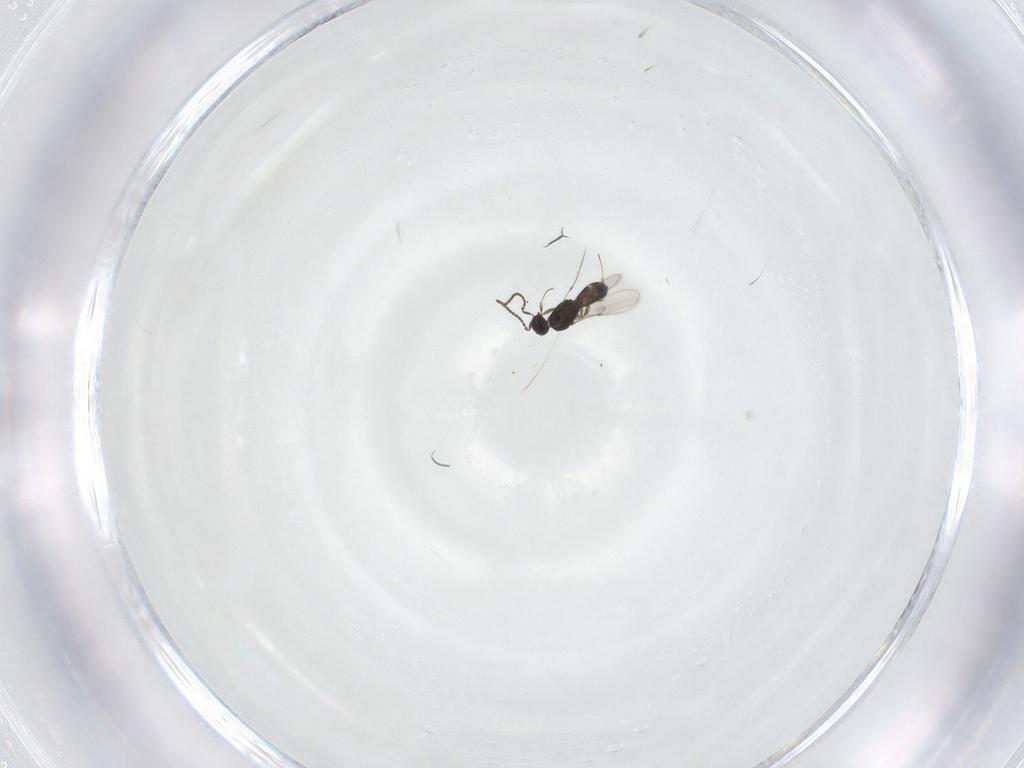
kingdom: Animalia
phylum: Arthropoda
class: Insecta
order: Hymenoptera
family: Scelionidae
